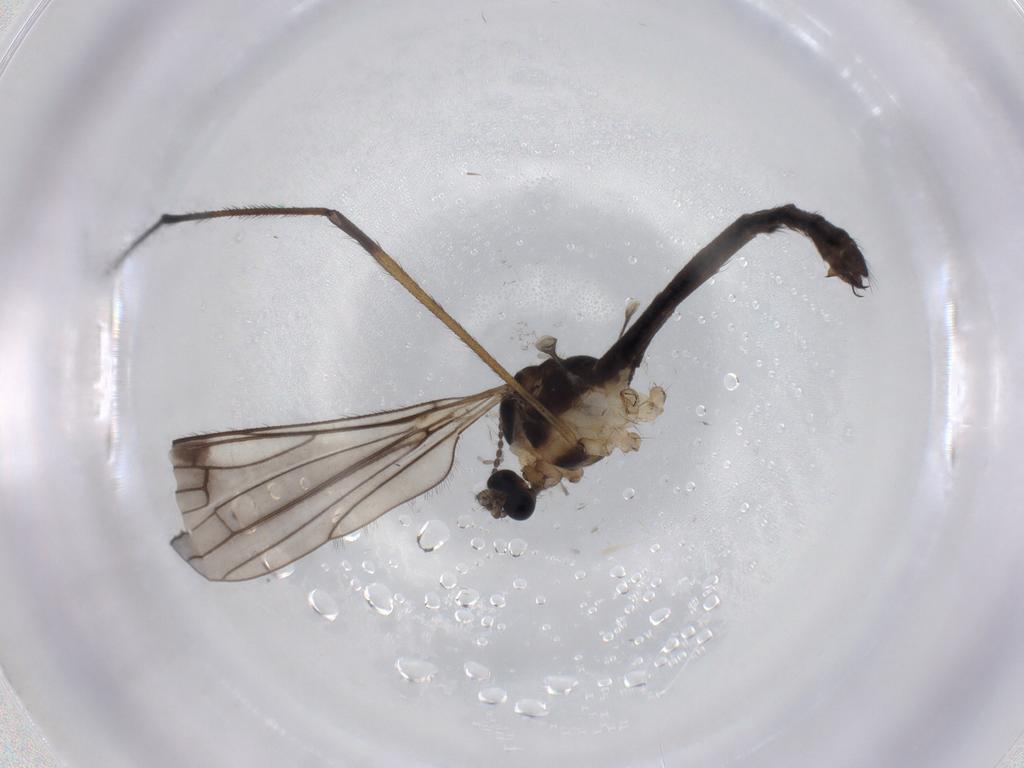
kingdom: Animalia
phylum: Arthropoda
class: Insecta
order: Diptera
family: Limoniidae
